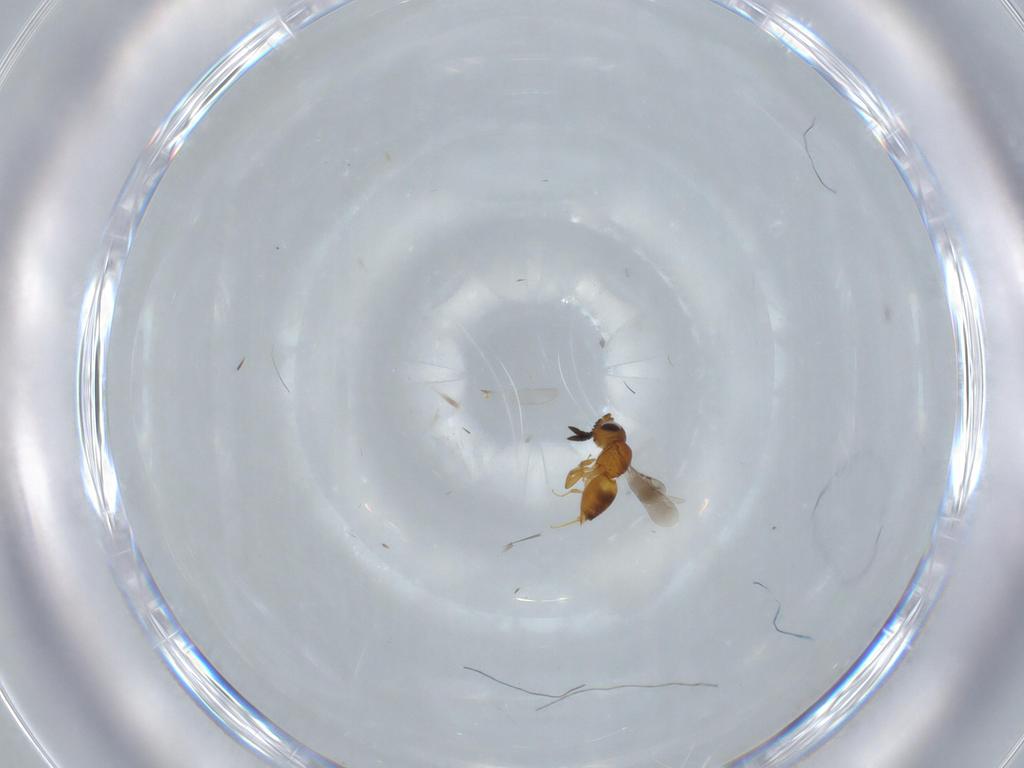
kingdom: Animalia
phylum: Arthropoda
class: Insecta
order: Hymenoptera
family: Ceraphronidae
